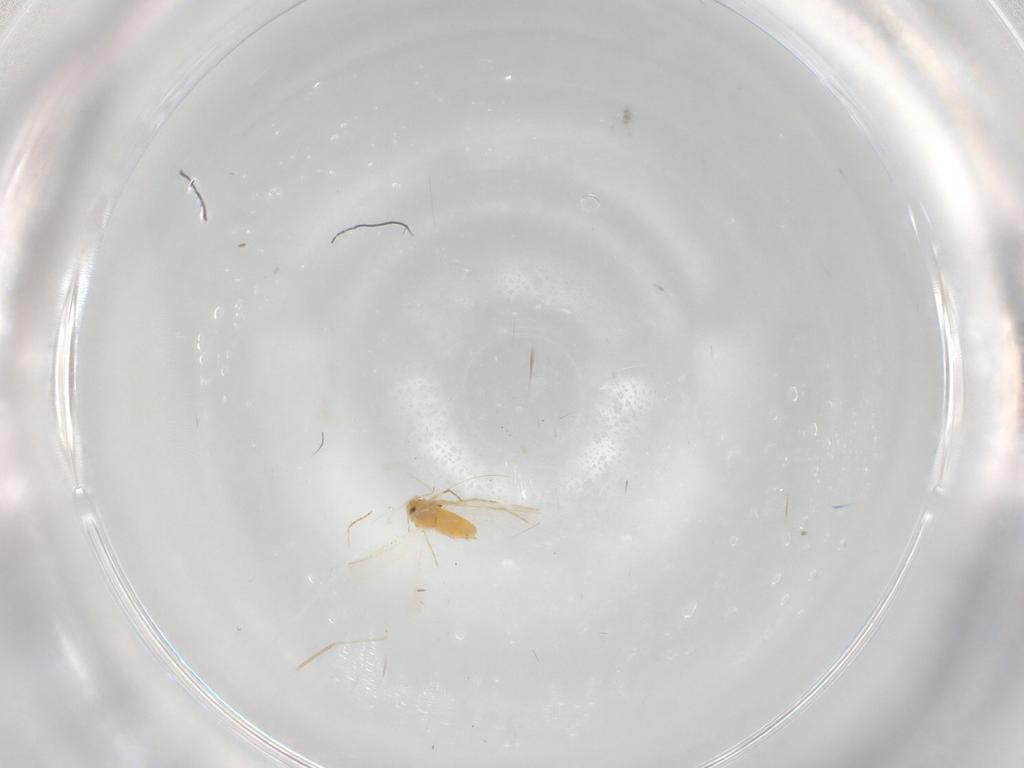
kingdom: Animalia
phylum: Arthropoda
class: Insecta
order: Hemiptera
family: Aleyrodidae
